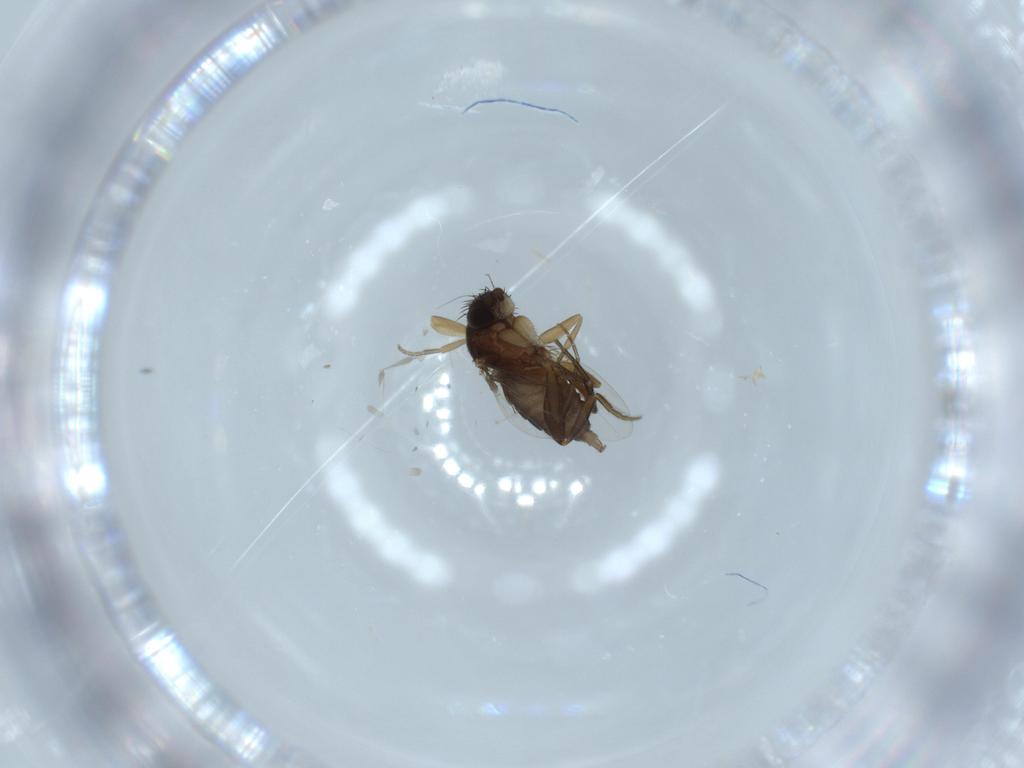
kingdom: Animalia
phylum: Arthropoda
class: Insecta
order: Diptera
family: Phoridae
